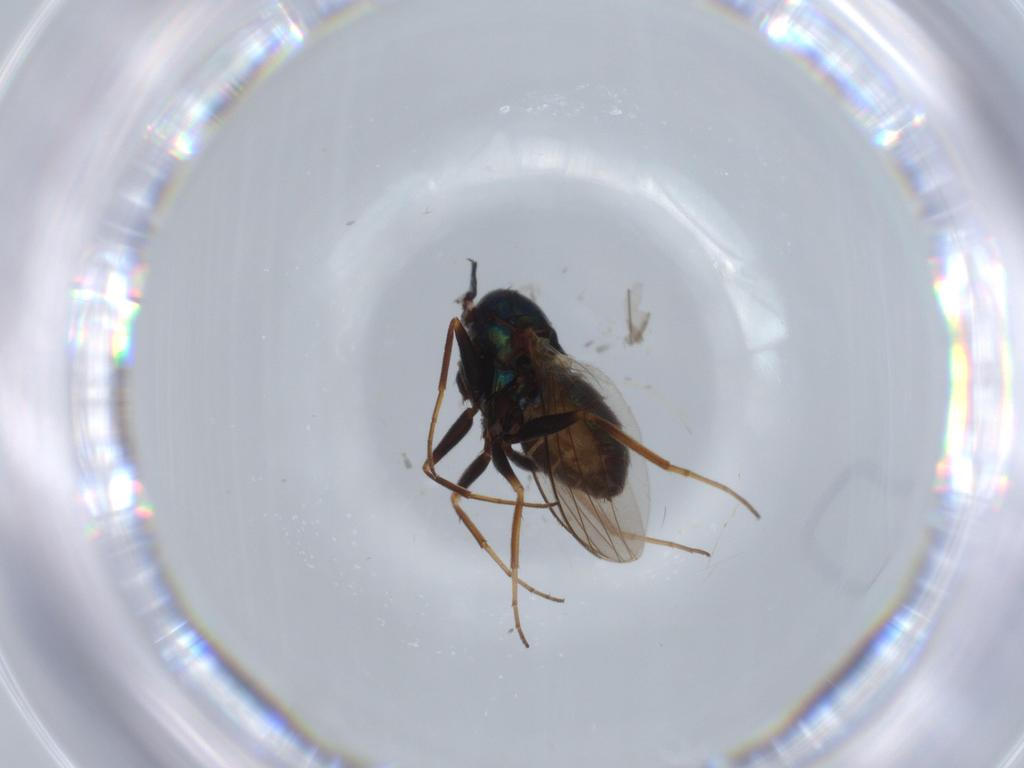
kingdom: Animalia
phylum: Arthropoda
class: Insecta
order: Diptera
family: Dolichopodidae
